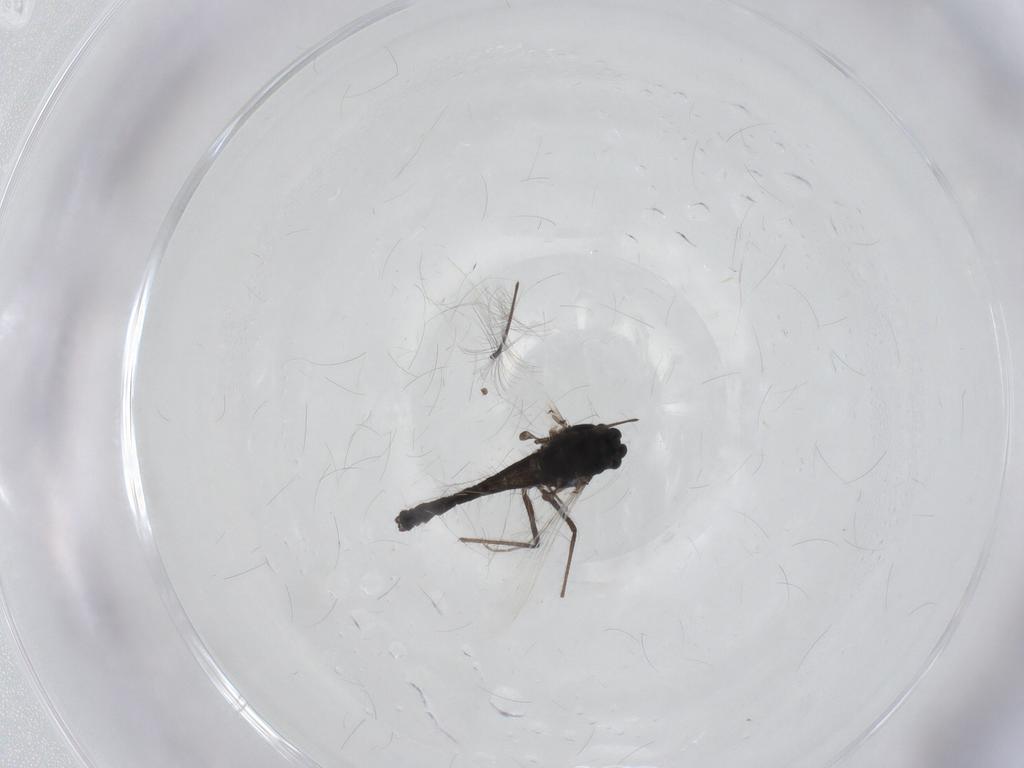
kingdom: Animalia
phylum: Arthropoda
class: Insecta
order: Diptera
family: Chironomidae
